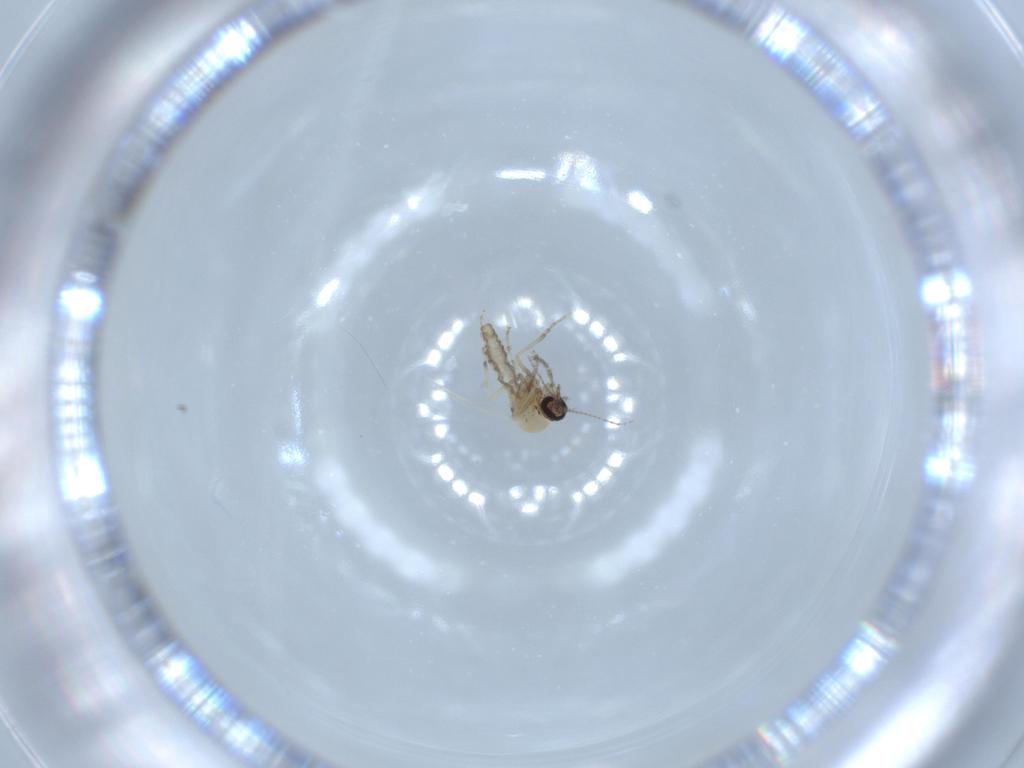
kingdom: Animalia
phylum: Arthropoda
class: Insecta
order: Diptera
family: Ceratopogonidae
